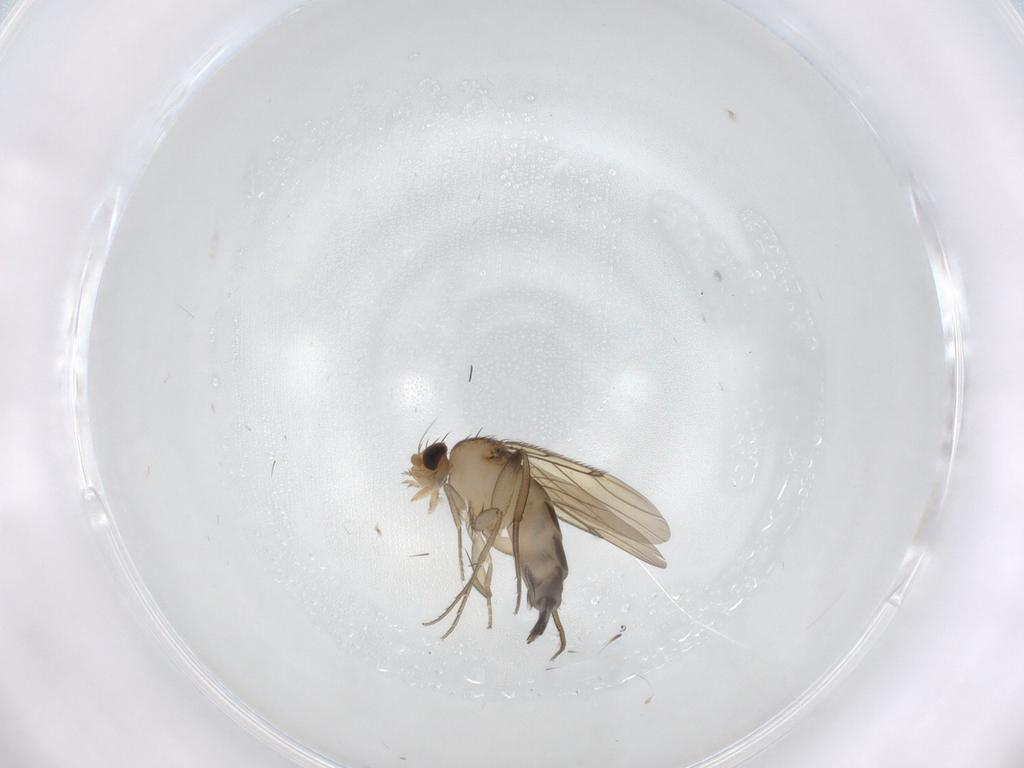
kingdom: Animalia
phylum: Arthropoda
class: Insecta
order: Diptera
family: Phoridae
